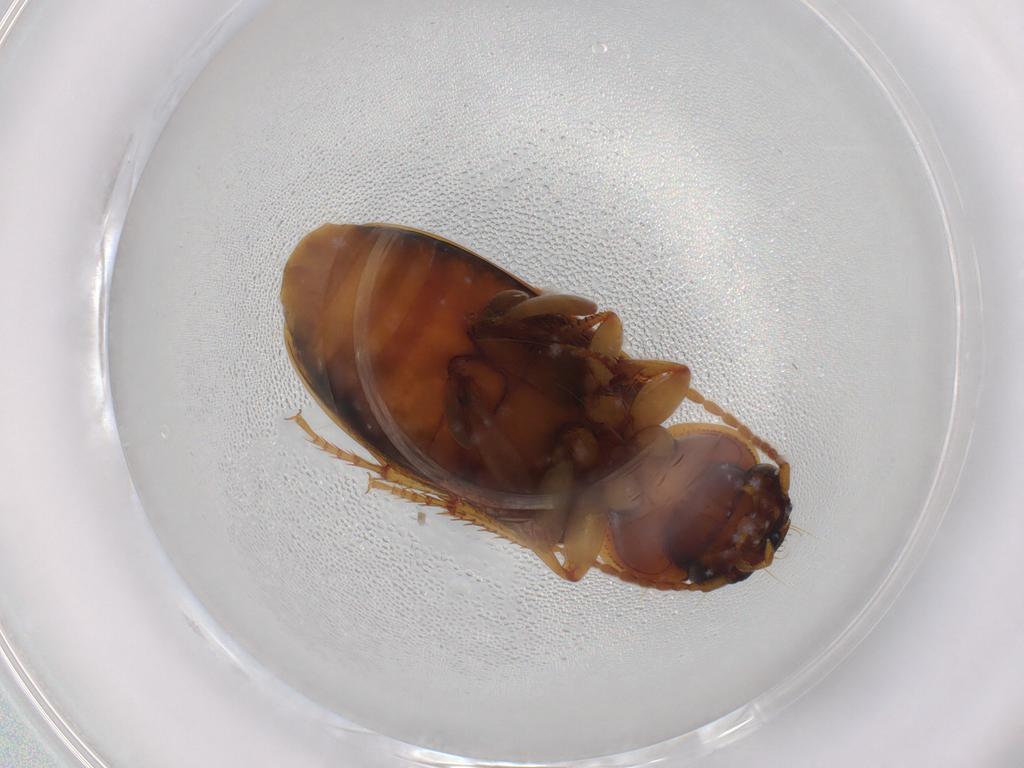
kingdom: Animalia
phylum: Arthropoda
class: Insecta
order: Coleoptera
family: Carabidae
